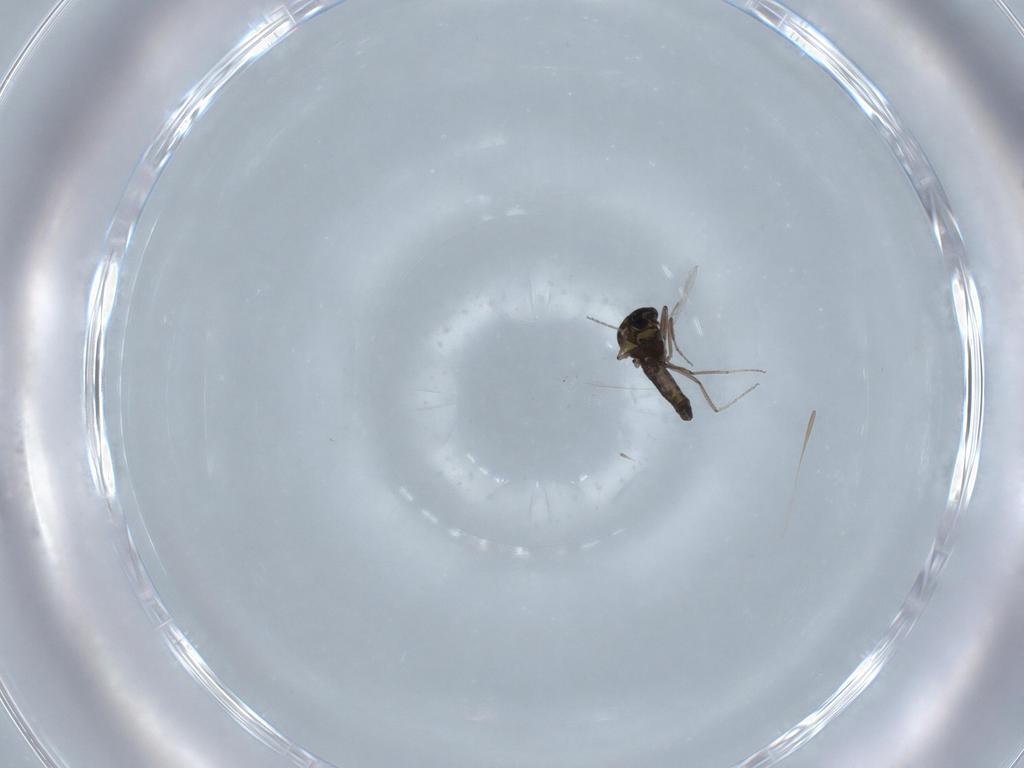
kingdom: Animalia
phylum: Arthropoda
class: Insecta
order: Diptera
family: Ceratopogonidae
